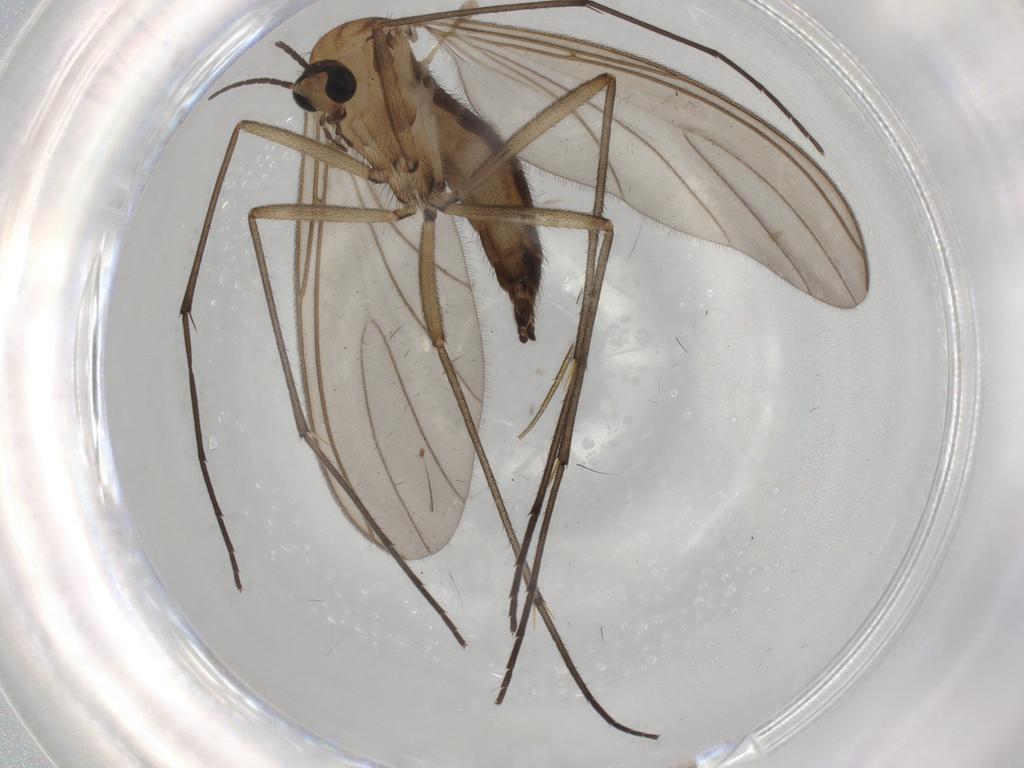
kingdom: Animalia
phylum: Arthropoda
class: Insecta
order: Diptera
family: Sciaridae
